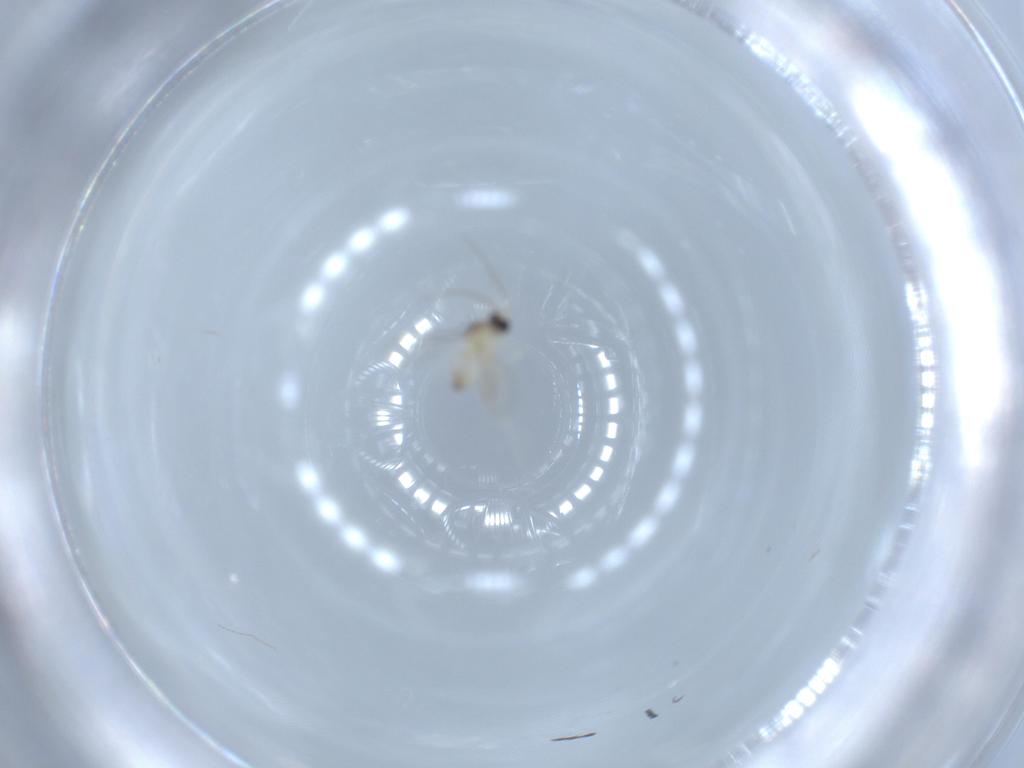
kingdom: Animalia
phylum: Arthropoda
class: Insecta
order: Diptera
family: Cecidomyiidae
